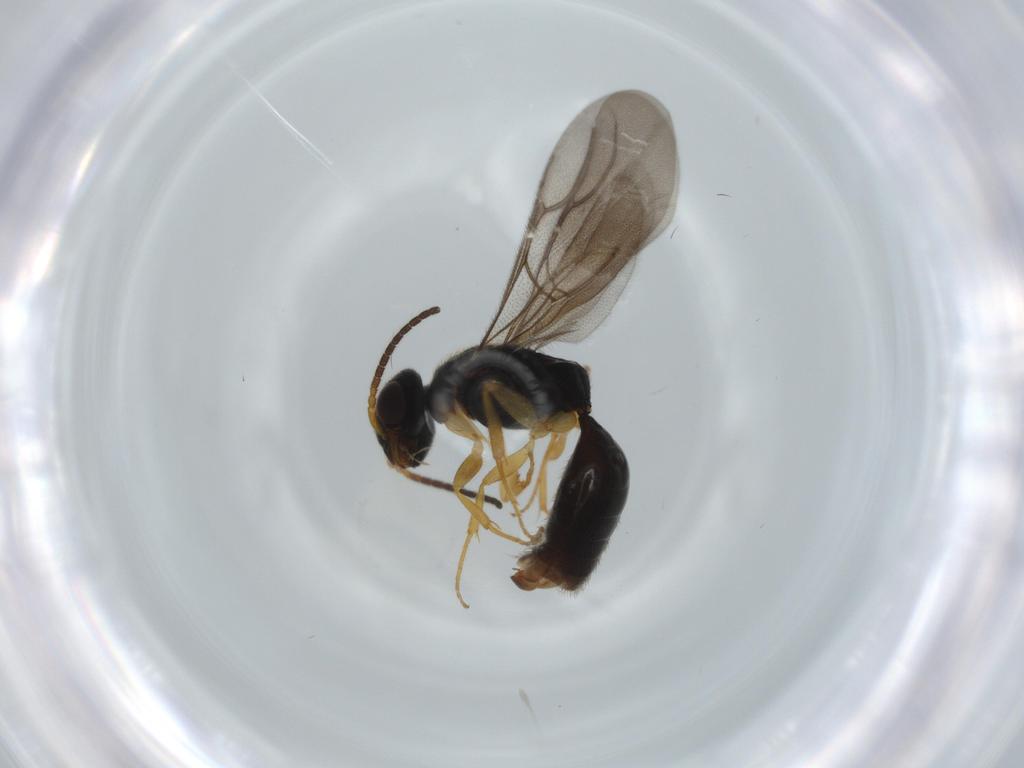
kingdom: Animalia
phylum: Arthropoda
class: Insecta
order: Hymenoptera
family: Bethylidae
